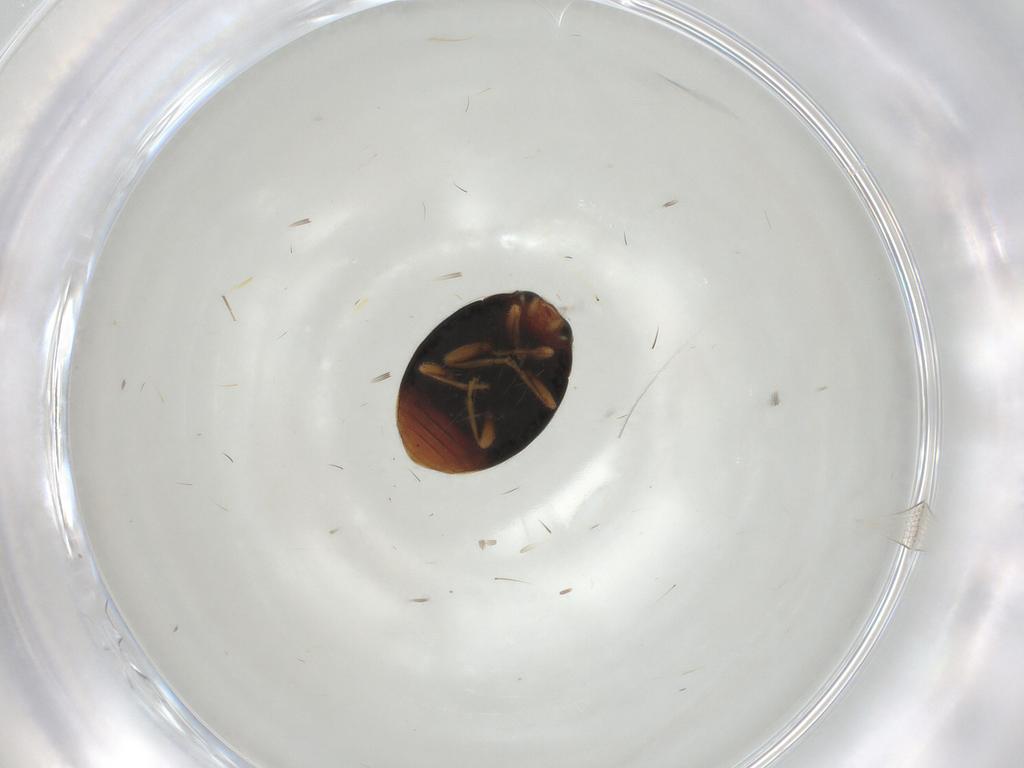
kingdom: Animalia
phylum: Arthropoda
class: Insecta
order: Coleoptera
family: Coccinellidae
